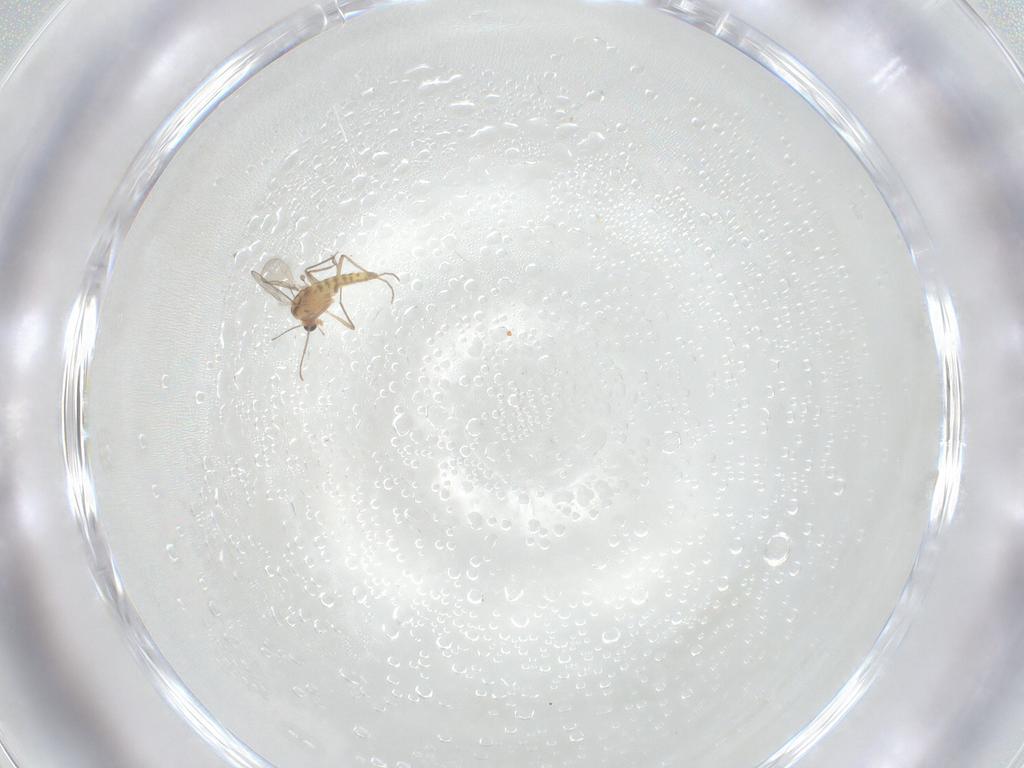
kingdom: Animalia
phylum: Arthropoda
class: Insecta
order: Diptera
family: Chironomidae
